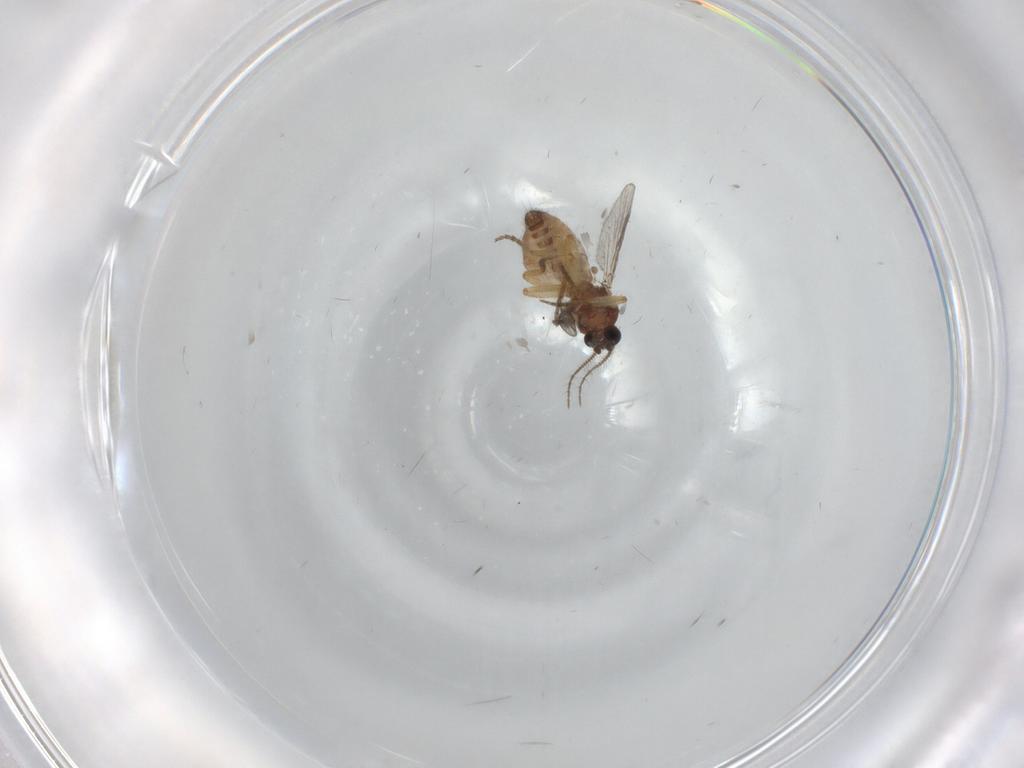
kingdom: Animalia
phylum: Arthropoda
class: Insecta
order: Diptera
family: Ceratopogonidae
